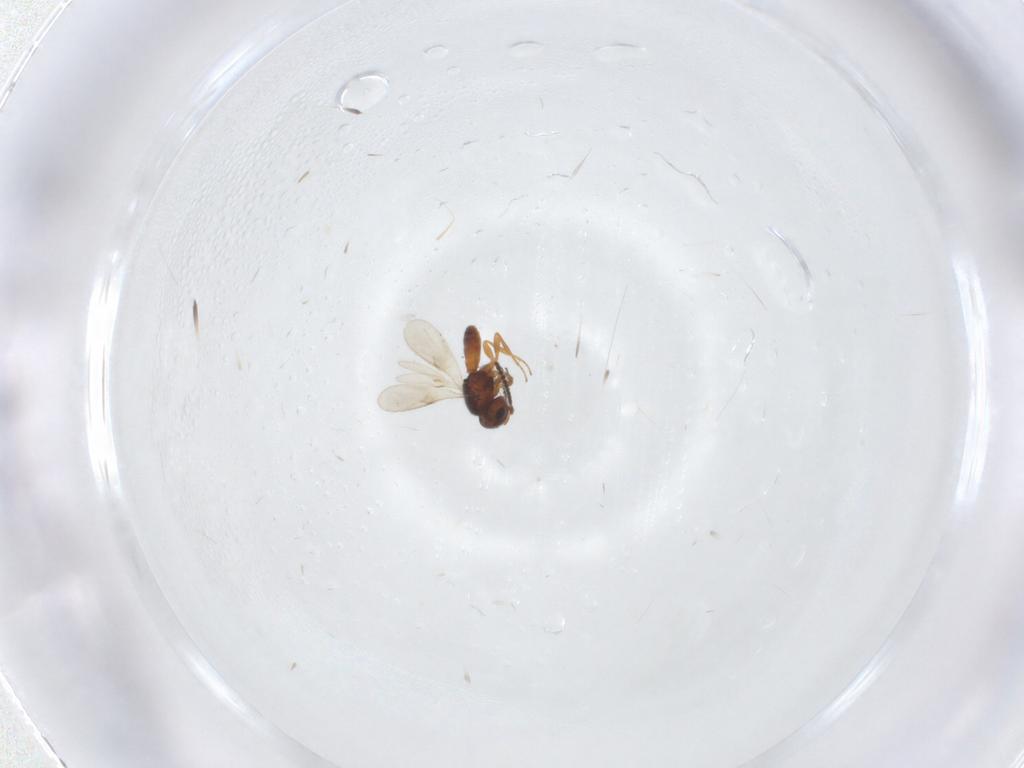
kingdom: Animalia
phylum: Arthropoda
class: Insecta
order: Hymenoptera
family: Scelionidae
